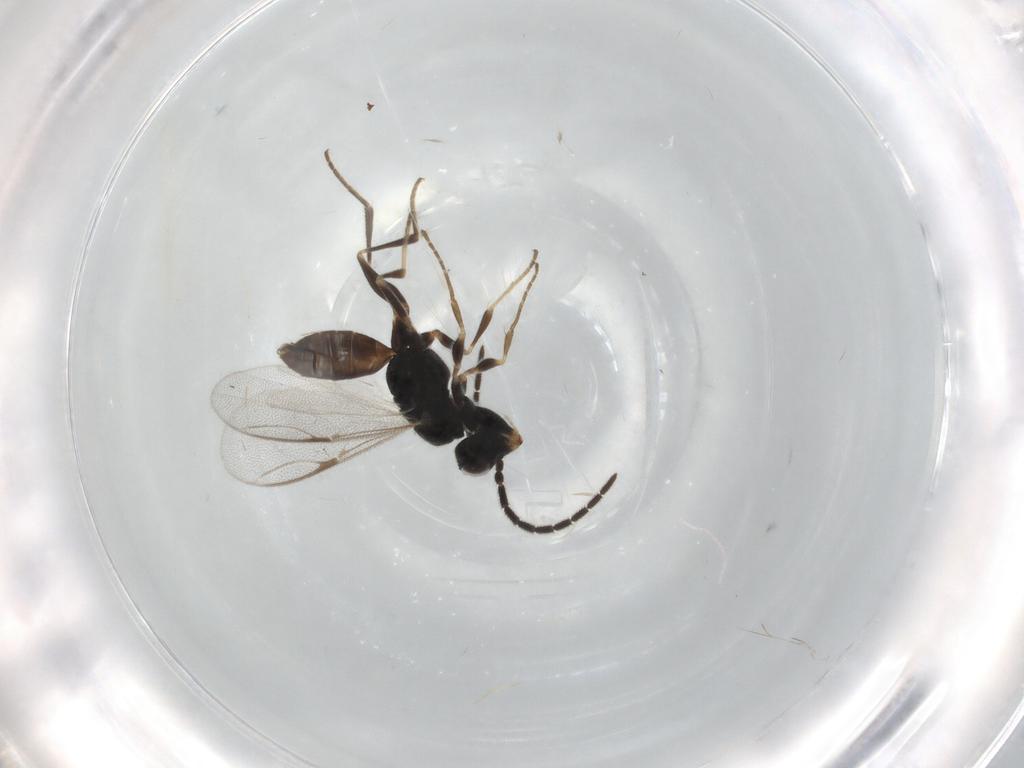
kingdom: Animalia
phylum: Arthropoda
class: Insecta
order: Hymenoptera
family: Dryinidae
